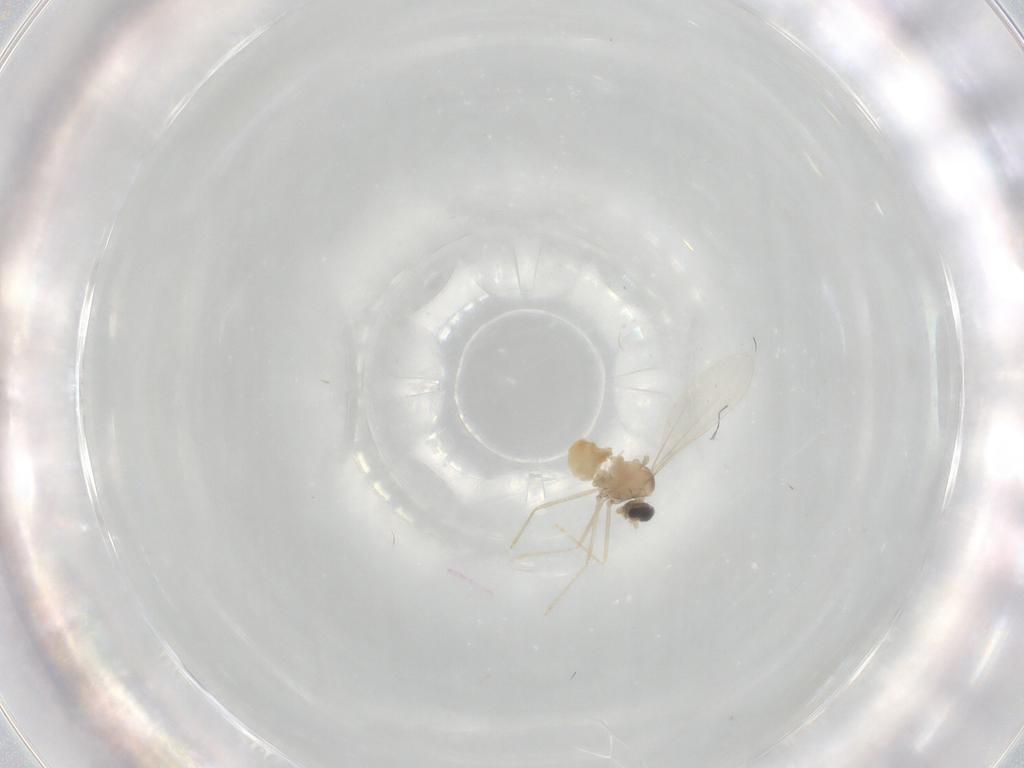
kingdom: Animalia
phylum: Arthropoda
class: Insecta
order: Diptera
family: Cecidomyiidae
